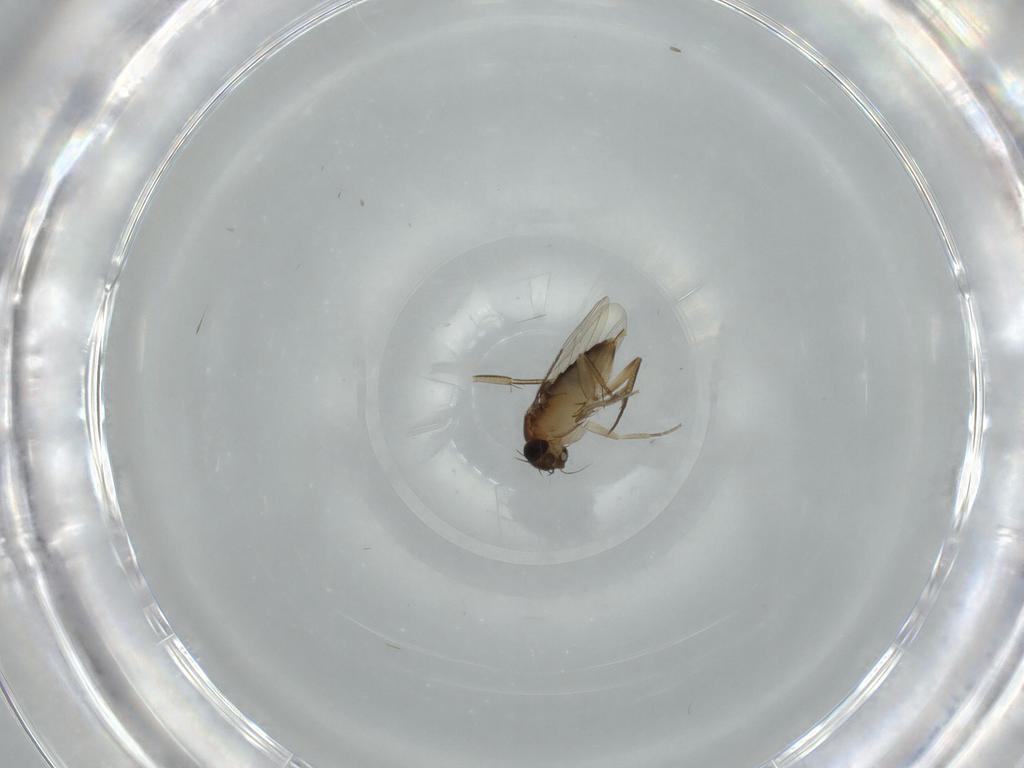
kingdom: Animalia
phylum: Arthropoda
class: Insecta
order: Diptera
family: Phoridae
